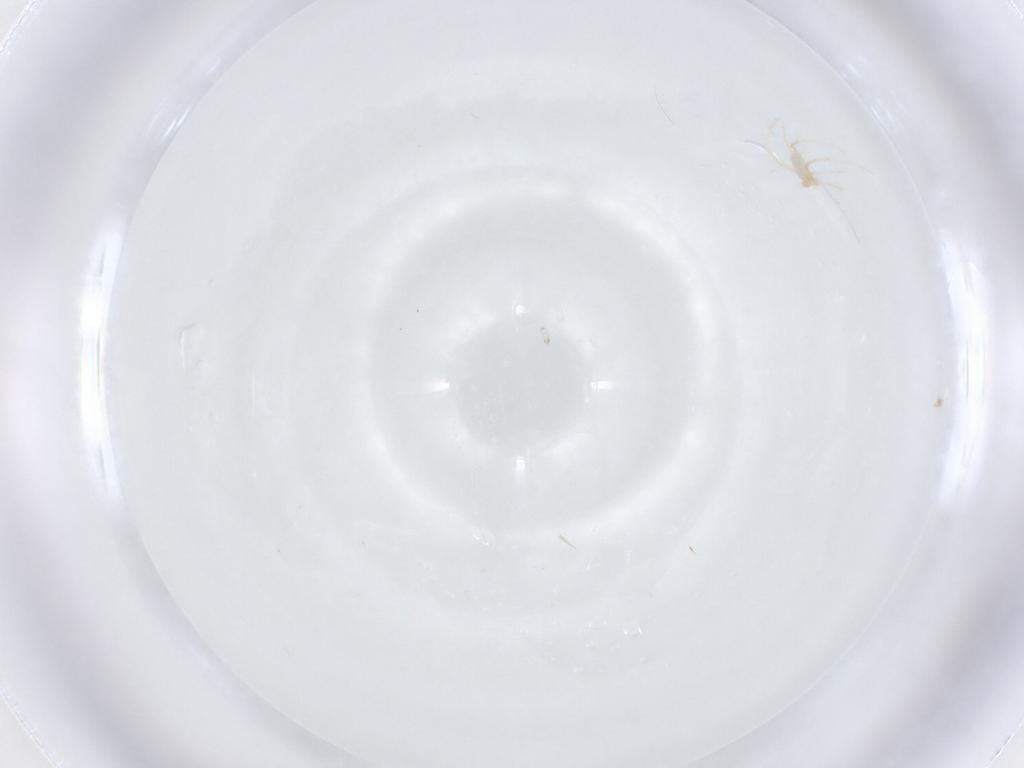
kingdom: Animalia
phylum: Arthropoda
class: Arachnida
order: Trombidiformes
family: Erythraeidae
